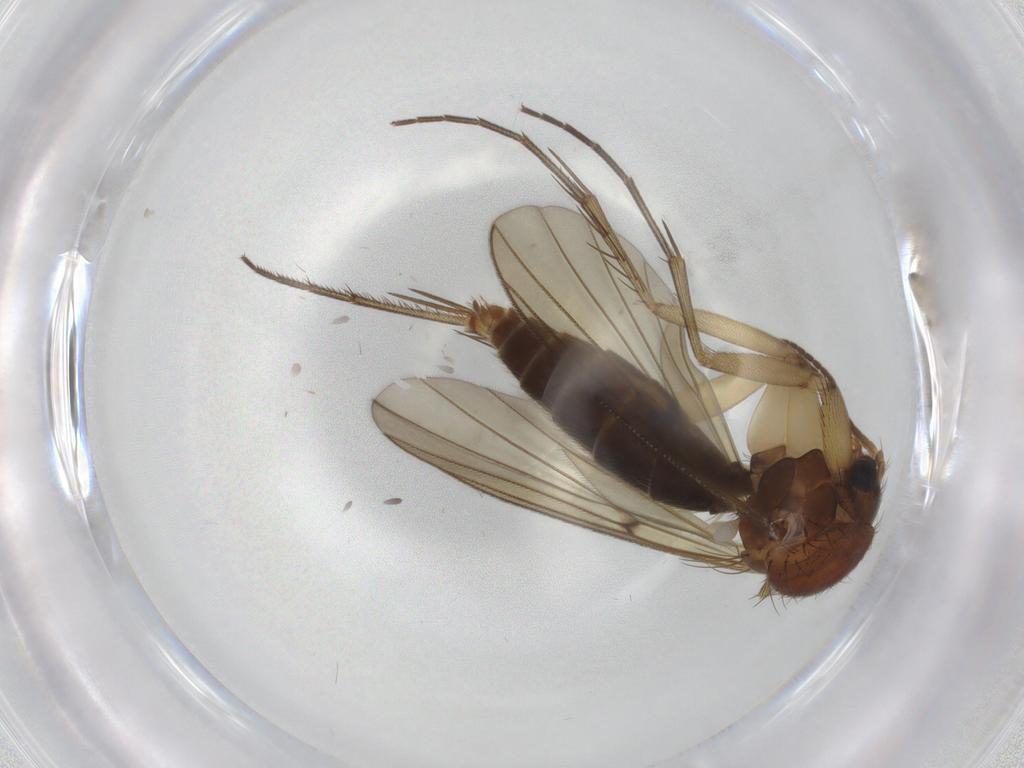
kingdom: Animalia
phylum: Arthropoda
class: Insecta
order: Diptera
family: Mycetophilidae
